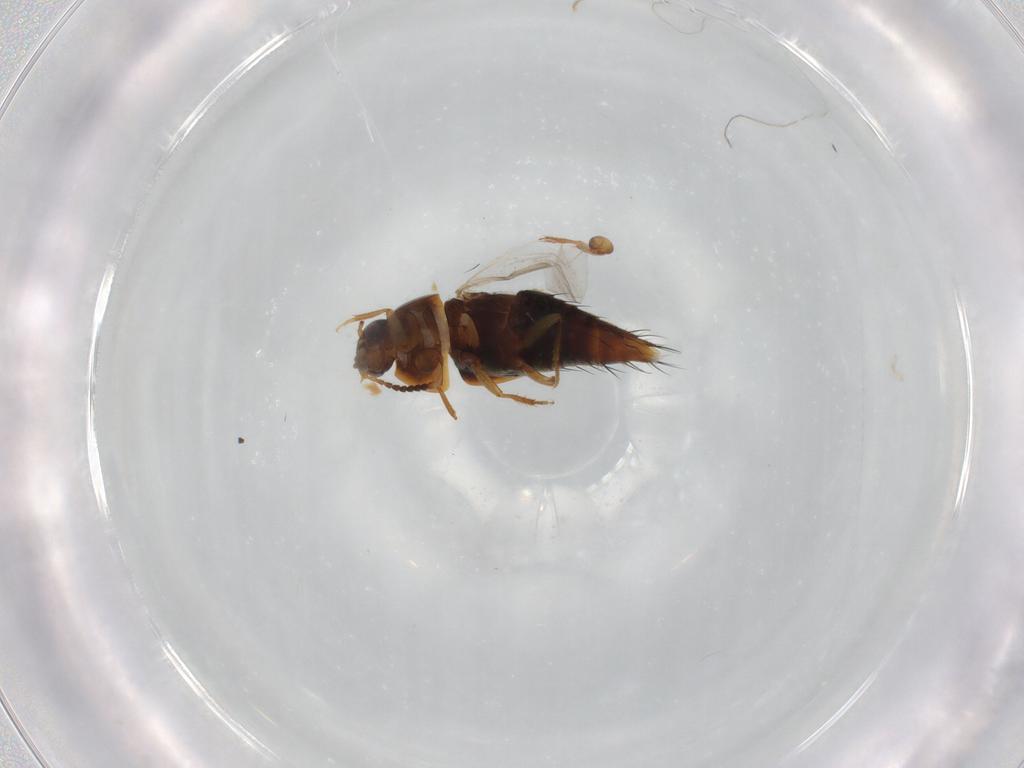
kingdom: Animalia
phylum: Arthropoda
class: Insecta
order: Coleoptera
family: Staphylinidae
